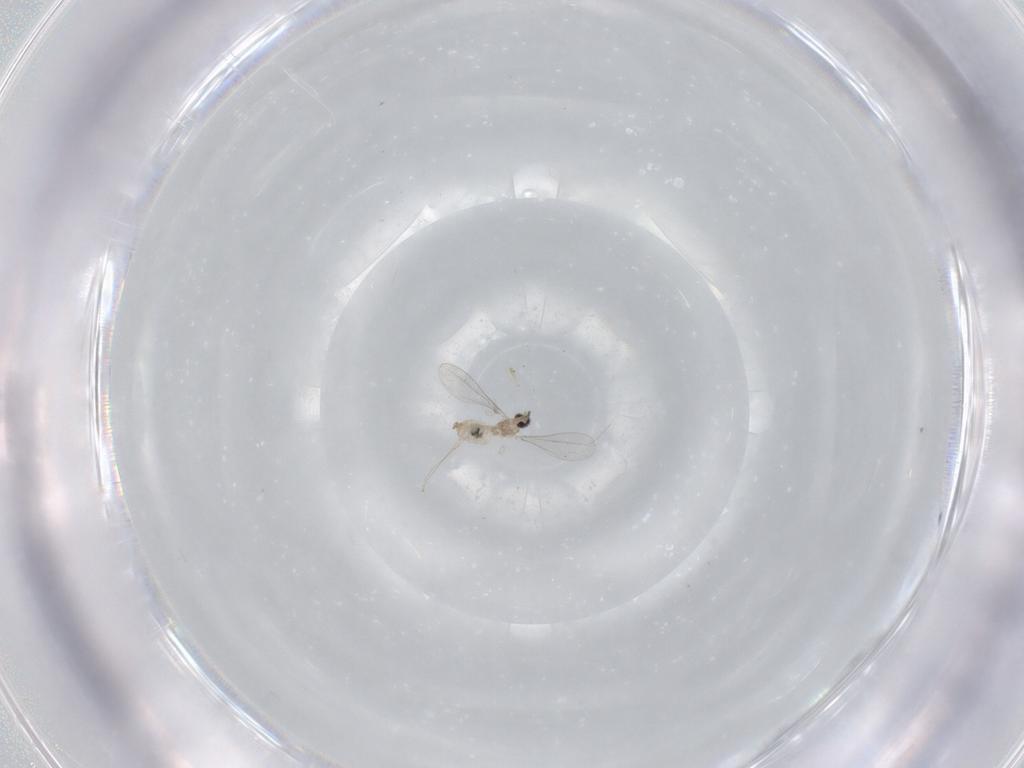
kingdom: Animalia
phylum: Arthropoda
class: Insecta
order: Diptera
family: Cecidomyiidae
